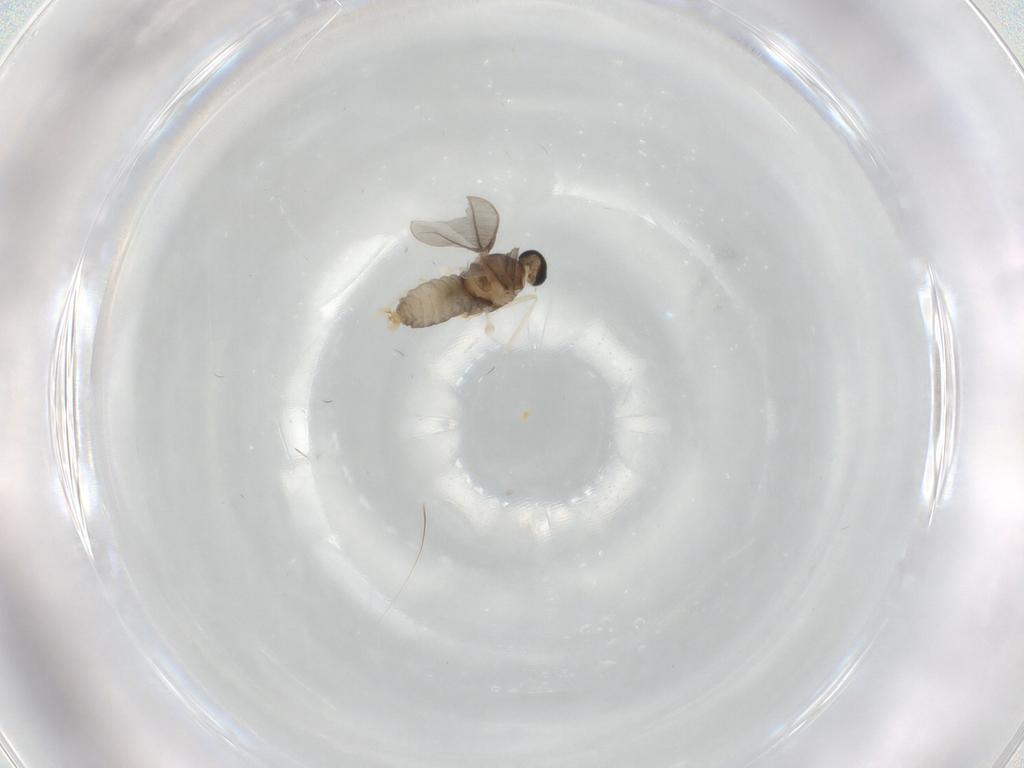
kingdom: Animalia
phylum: Arthropoda
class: Insecta
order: Diptera
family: Cecidomyiidae
